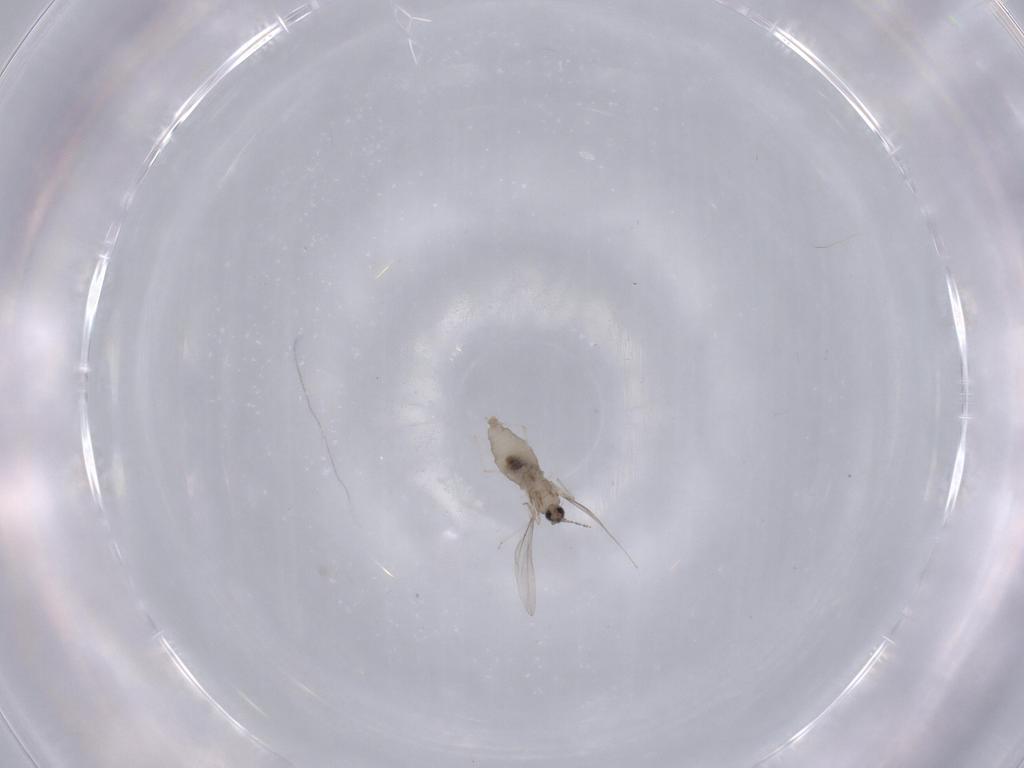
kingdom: Animalia
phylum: Arthropoda
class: Insecta
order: Diptera
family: Cecidomyiidae
